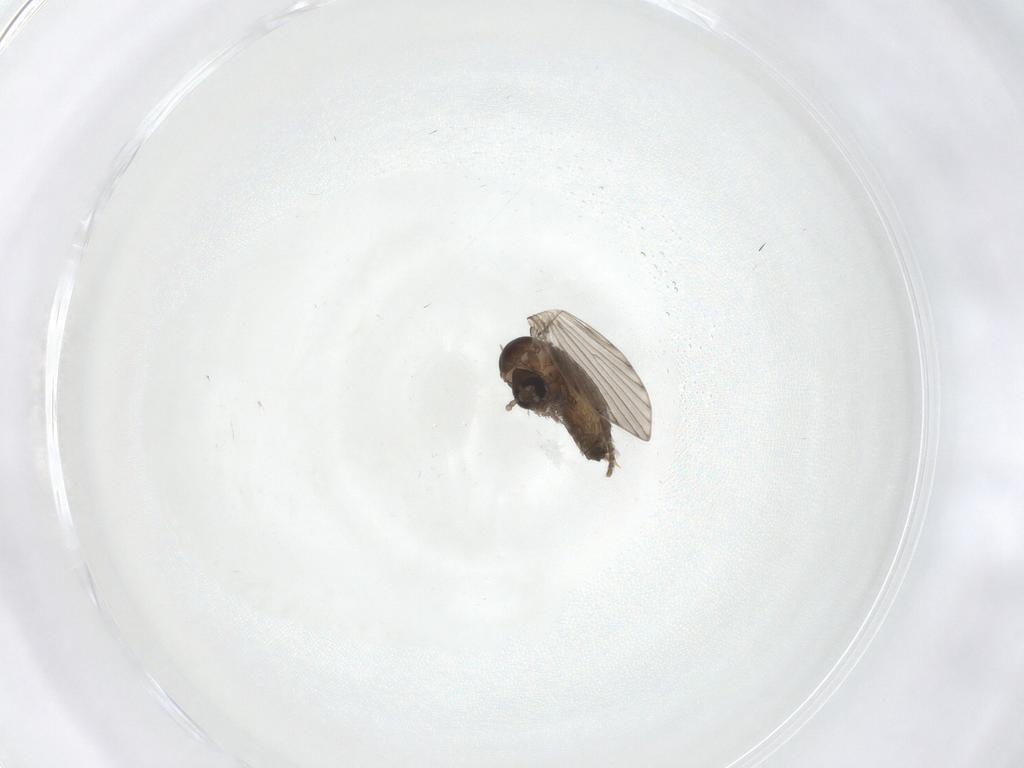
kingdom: Animalia
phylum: Arthropoda
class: Insecta
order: Diptera
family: Psychodidae
